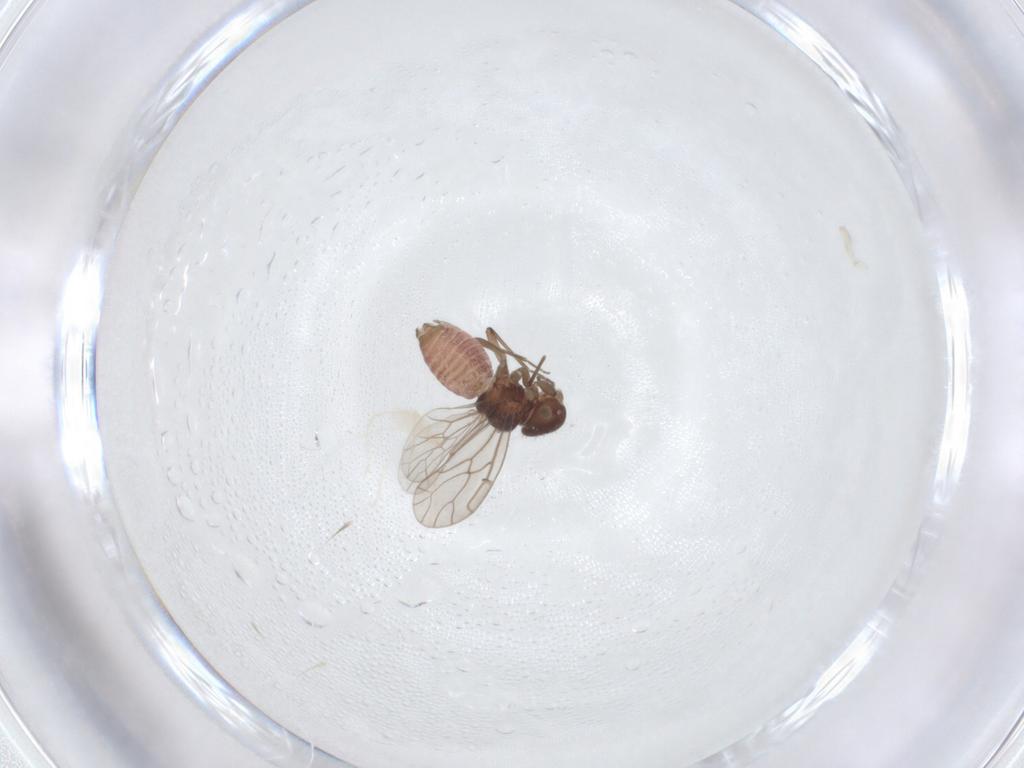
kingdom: Animalia
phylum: Arthropoda
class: Insecta
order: Psocodea
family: Ectopsocidae
